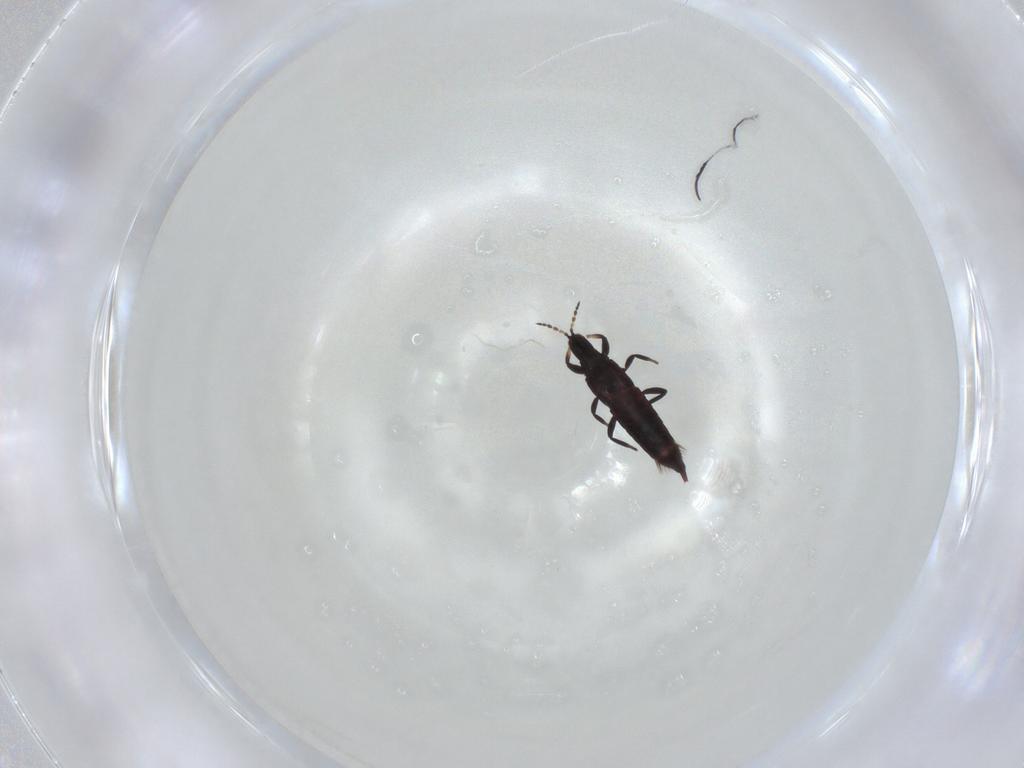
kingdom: Animalia
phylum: Arthropoda
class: Insecta
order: Thysanoptera
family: Phlaeothripidae
